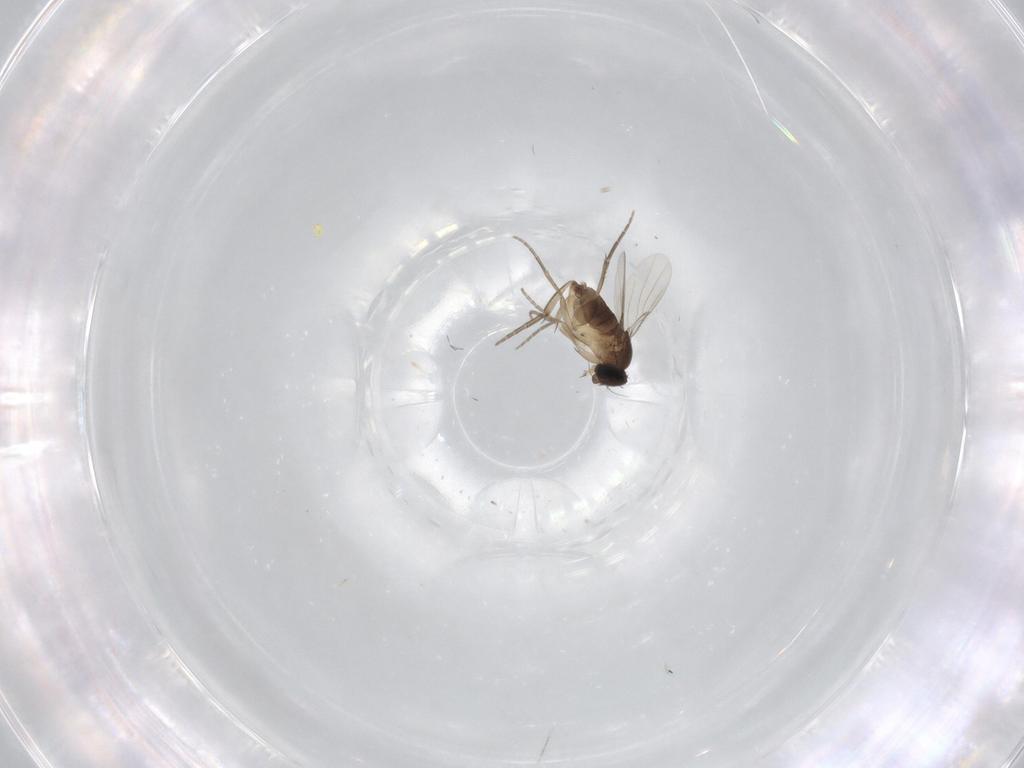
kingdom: Animalia
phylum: Arthropoda
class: Insecta
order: Diptera
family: Phoridae
